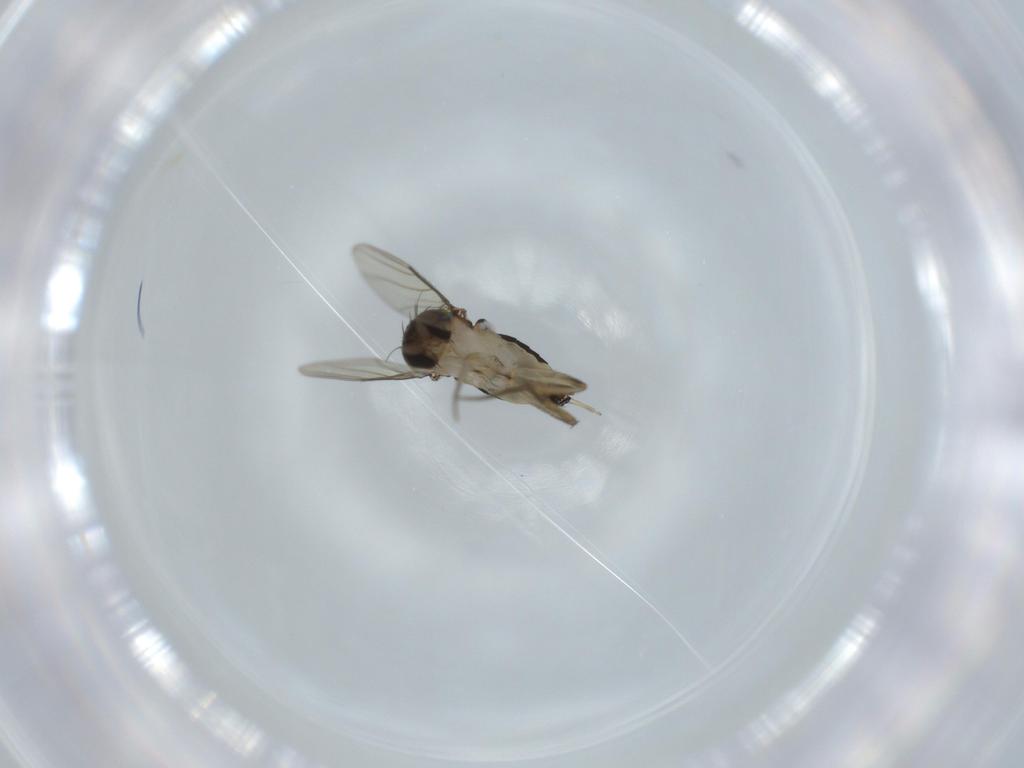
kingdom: Animalia
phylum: Arthropoda
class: Insecta
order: Diptera
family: Phoridae
